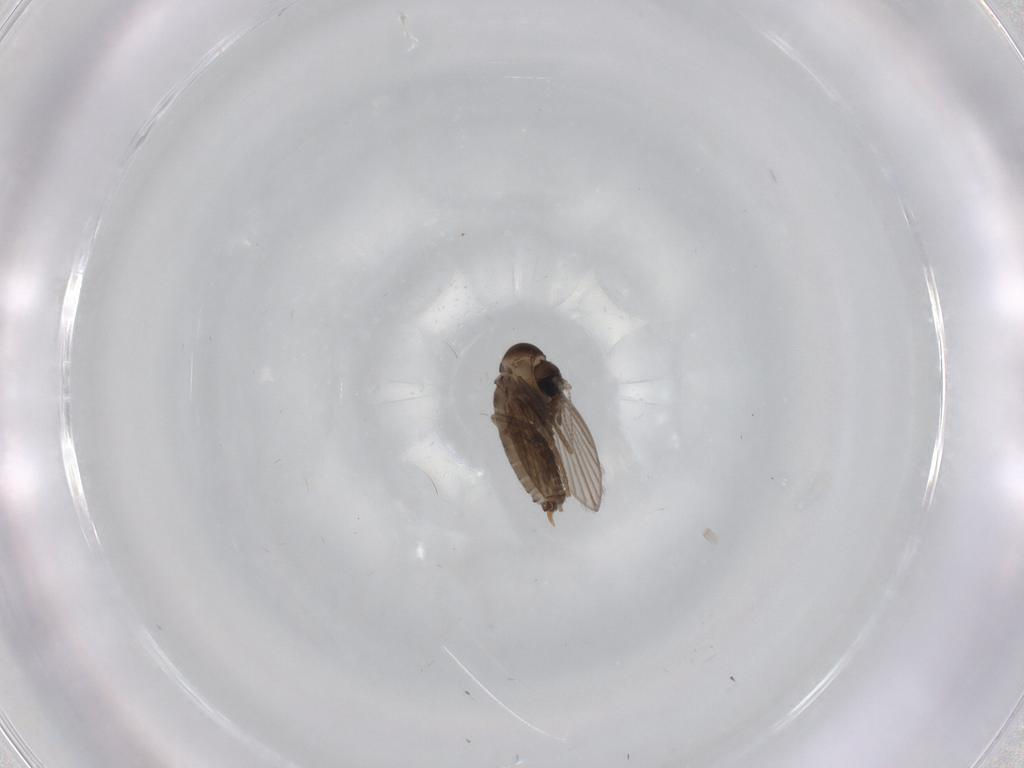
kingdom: Animalia
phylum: Arthropoda
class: Insecta
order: Diptera
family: Psychodidae
